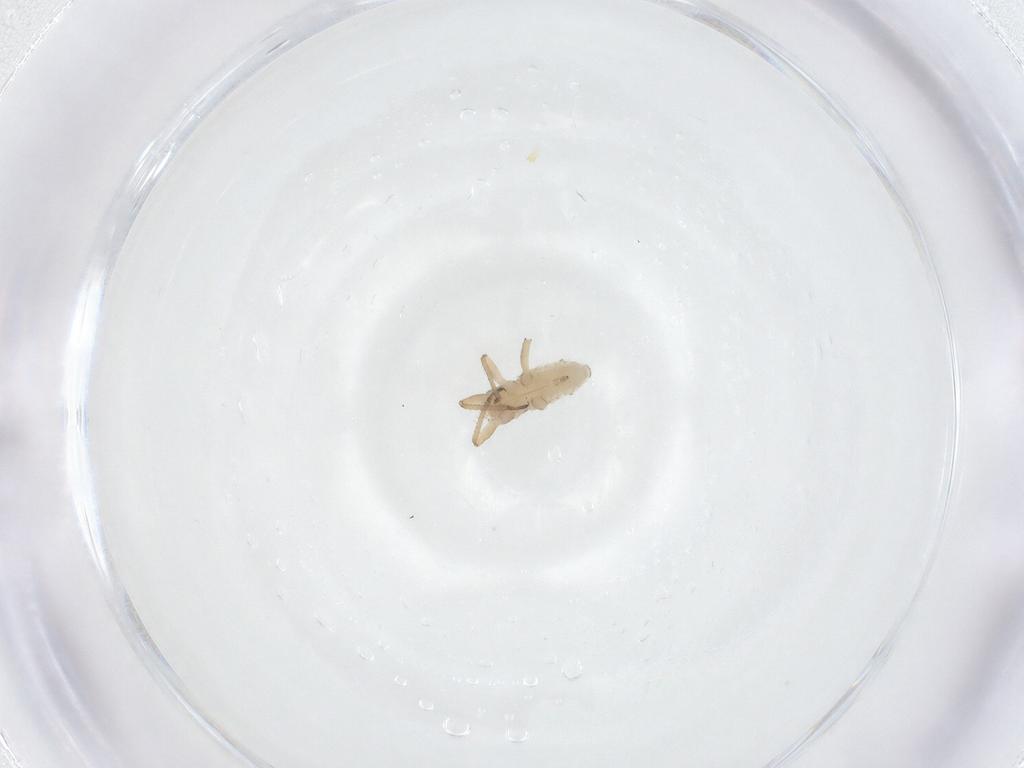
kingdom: Animalia
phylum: Arthropoda
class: Insecta
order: Hemiptera
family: Aphididae
